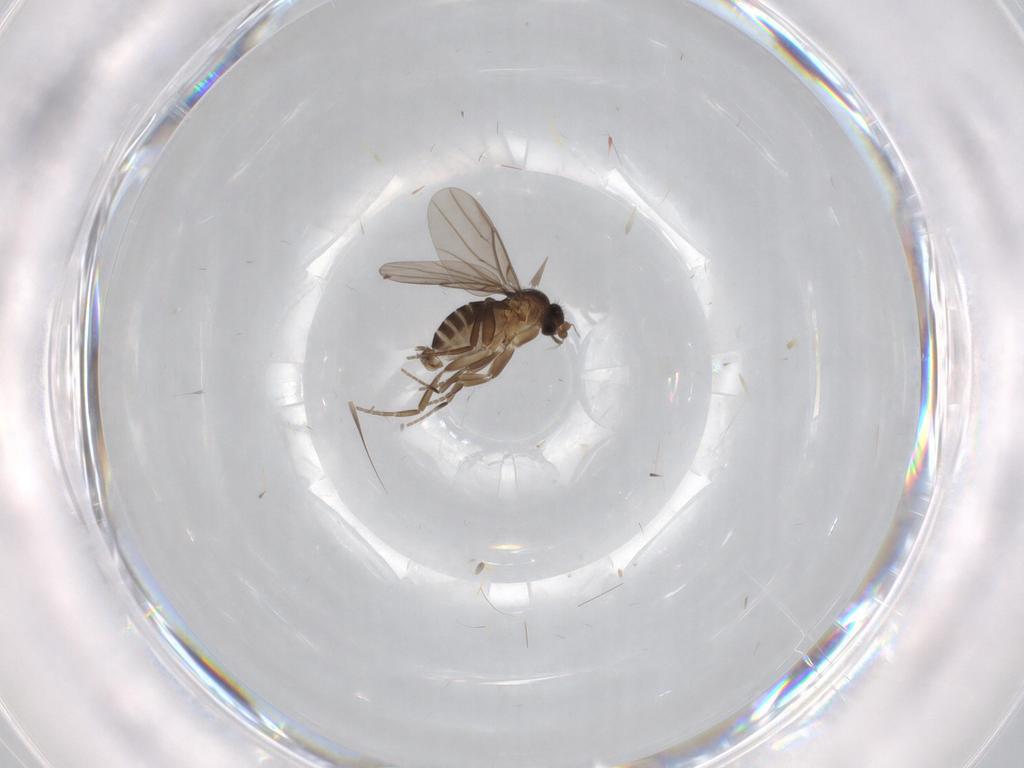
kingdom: Animalia
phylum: Arthropoda
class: Insecta
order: Diptera
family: Phoridae
